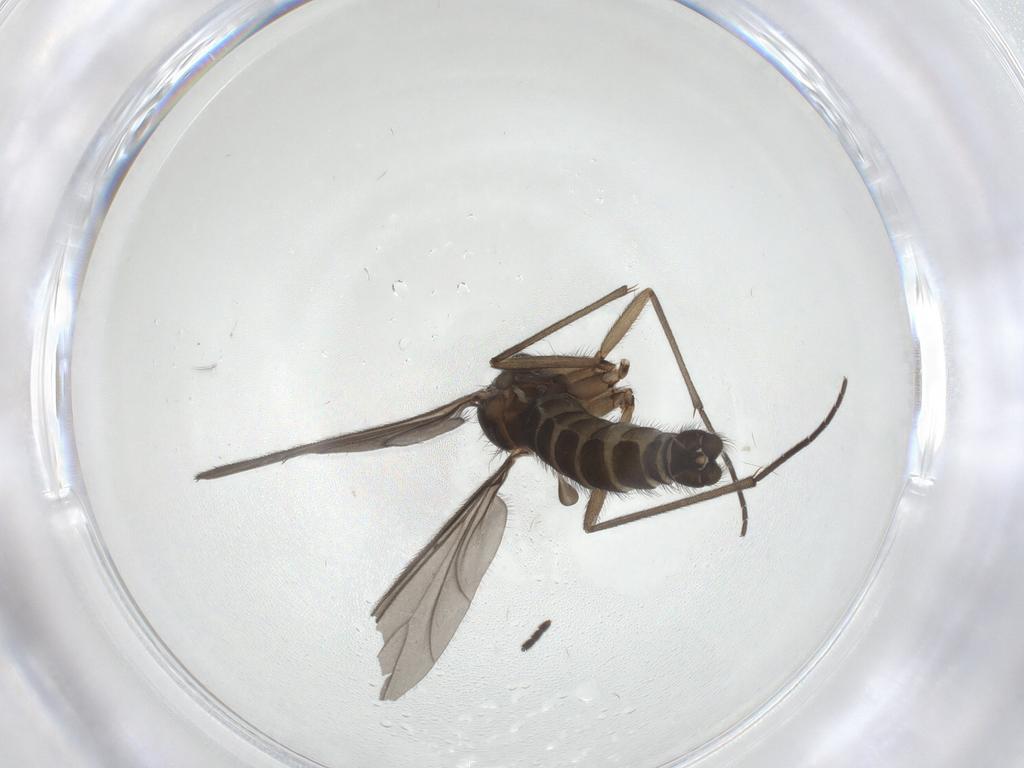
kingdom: Animalia
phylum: Arthropoda
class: Insecta
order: Diptera
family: Sciaridae
